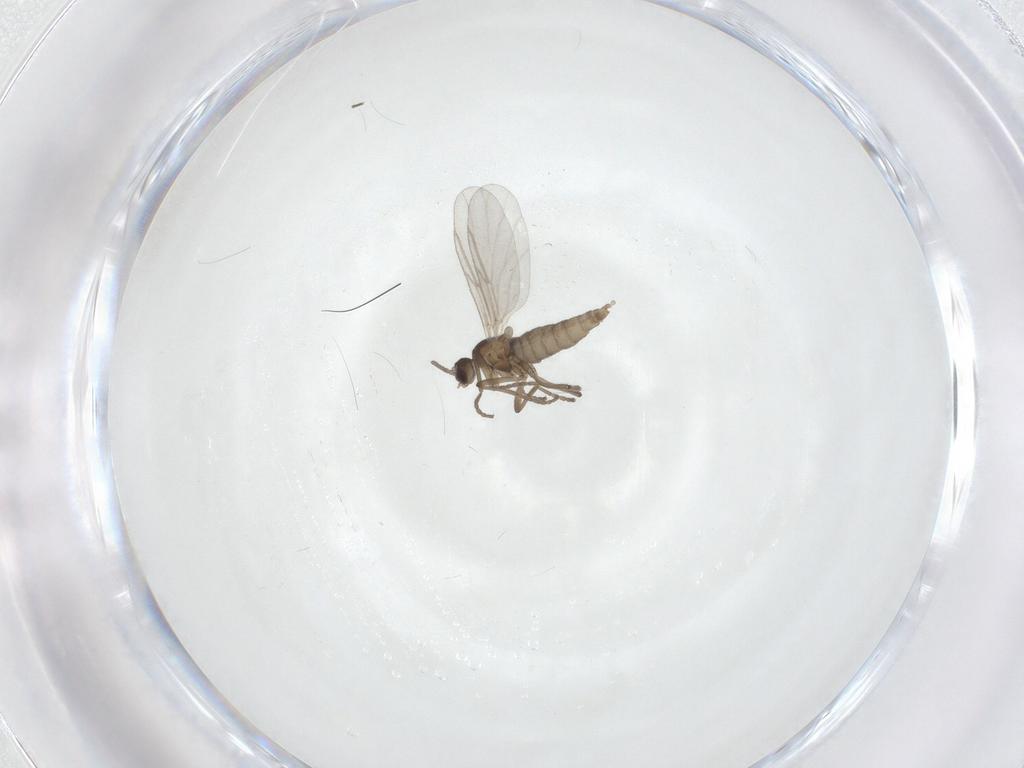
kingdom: Animalia
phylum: Arthropoda
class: Insecta
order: Diptera
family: Cecidomyiidae
